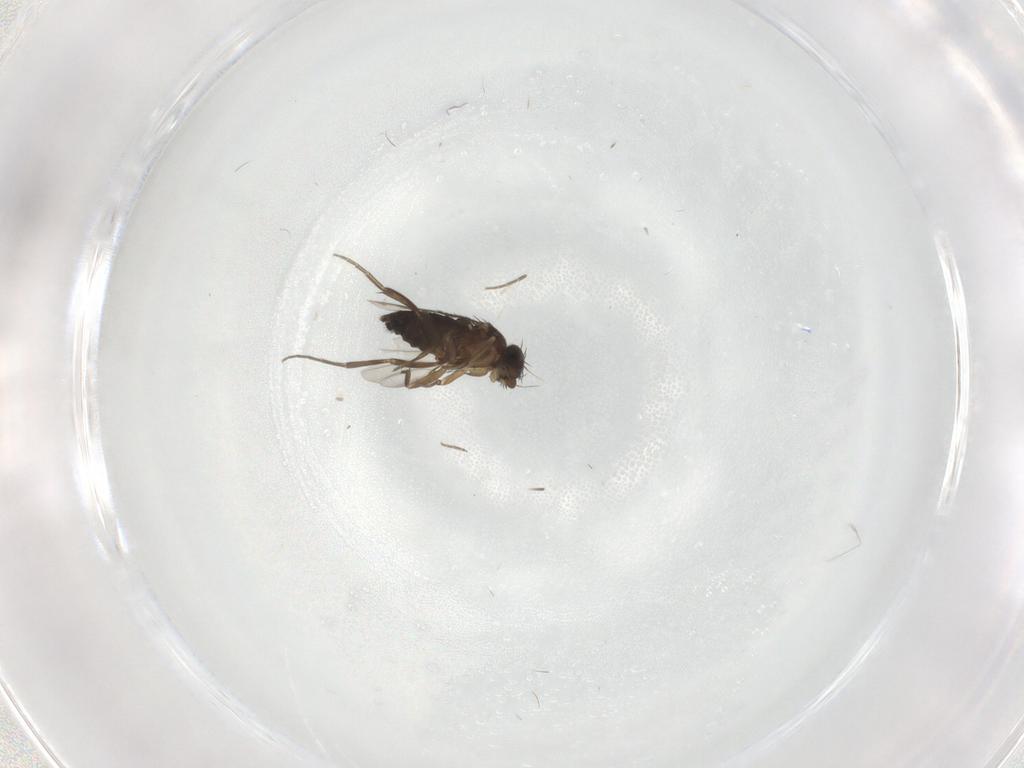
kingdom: Animalia
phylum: Arthropoda
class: Insecta
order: Diptera
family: Phoridae
